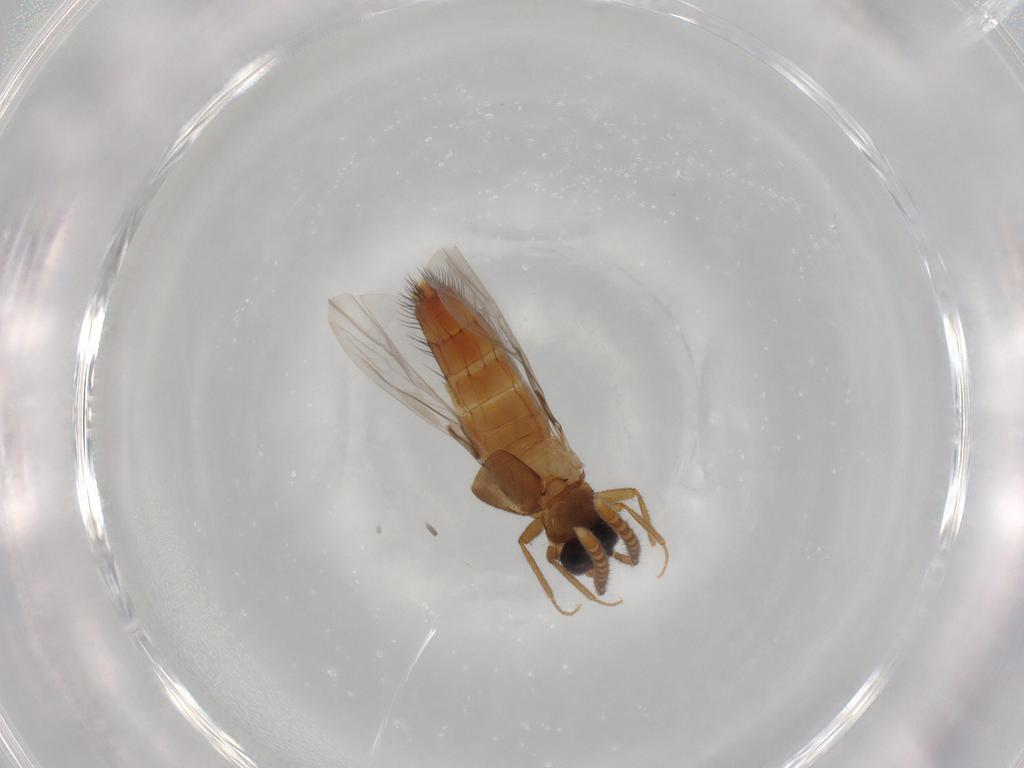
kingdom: Animalia
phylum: Arthropoda
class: Insecta
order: Coleoptera
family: Staphylinidae
